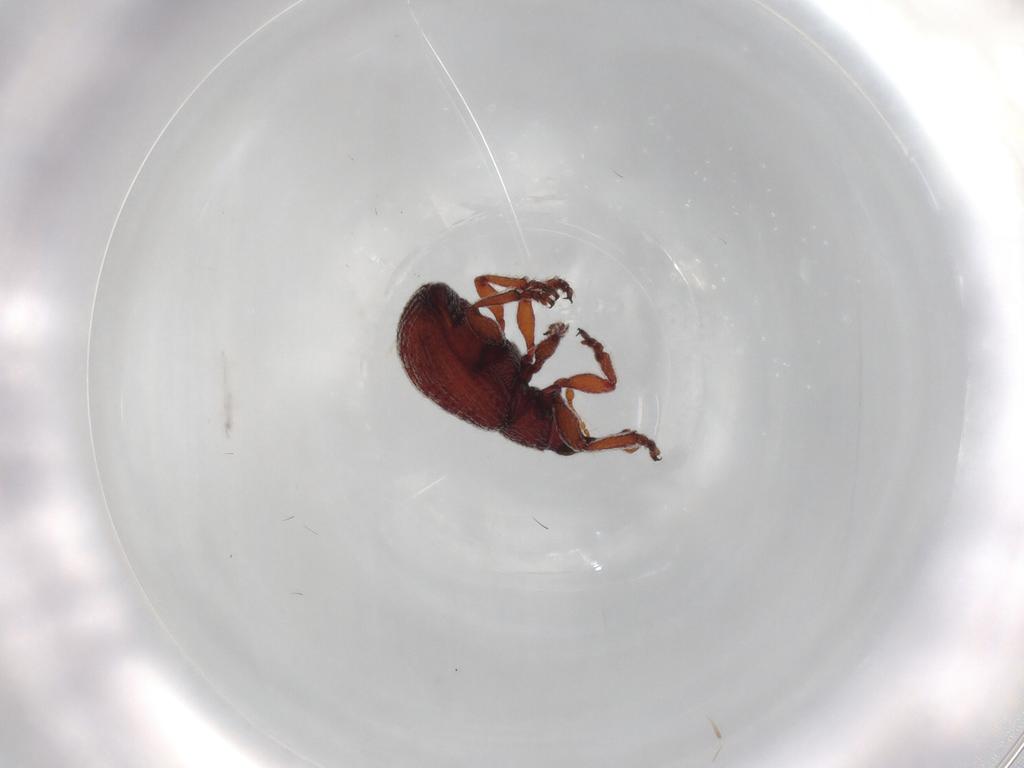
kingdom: Animalia
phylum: Arthropoda
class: Insecta
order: Coleoptera
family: Brentidae
